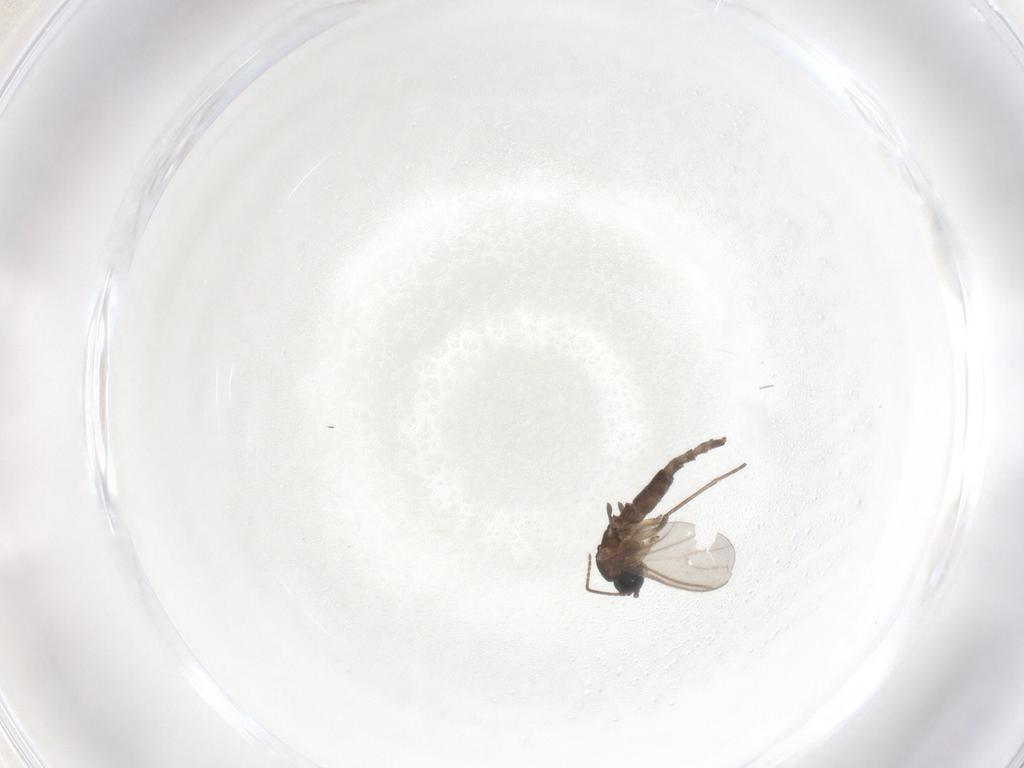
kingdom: Animalia
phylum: Arthropoda
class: Insecta
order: Diptera
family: Sciaridae
